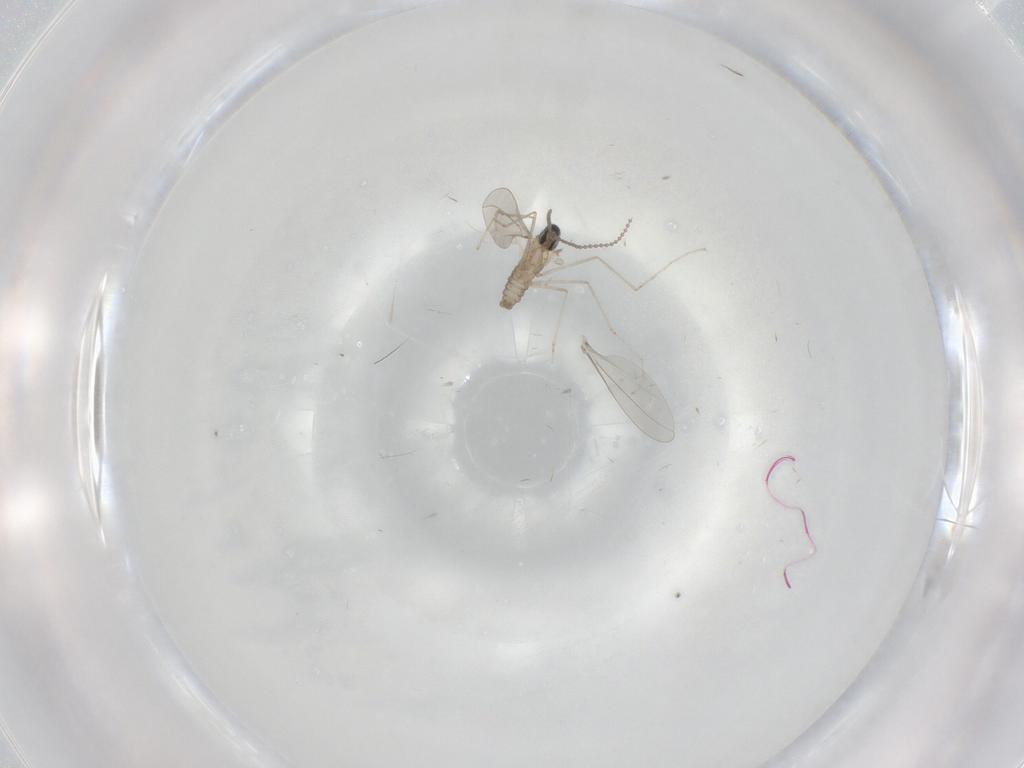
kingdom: Animalia
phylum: Arthropoda
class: Insecta
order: Diptera
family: Cecidomyiidae
